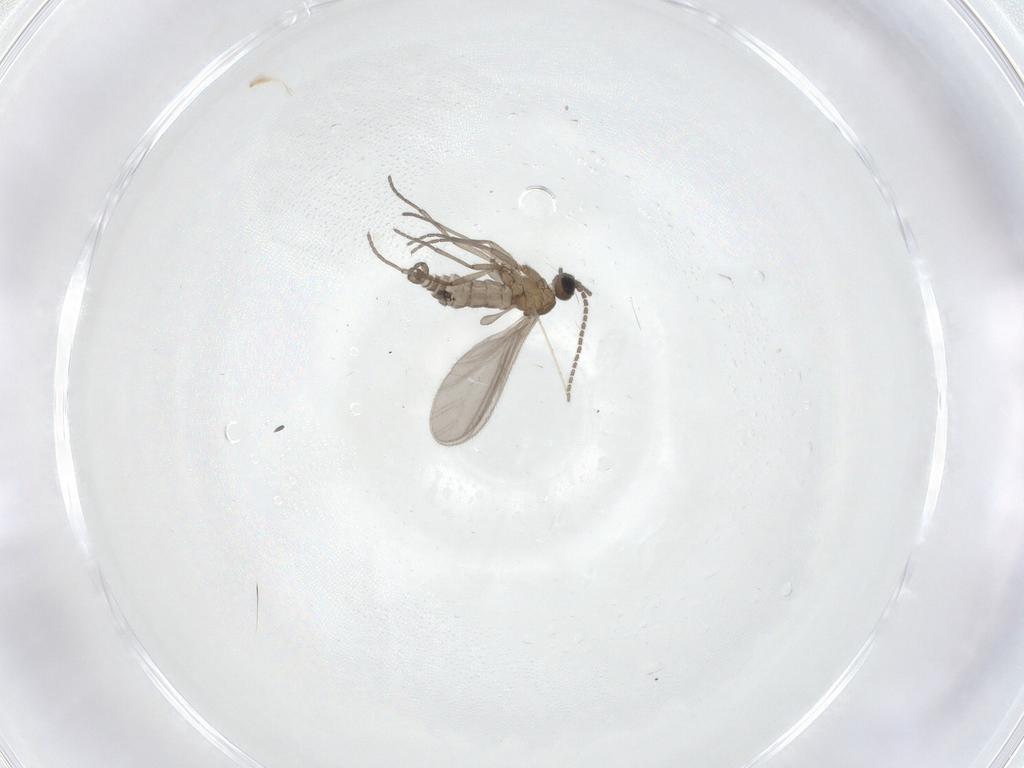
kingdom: Animalia
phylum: Arthropoda
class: Insecta
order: Diptera
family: Sciaridae
